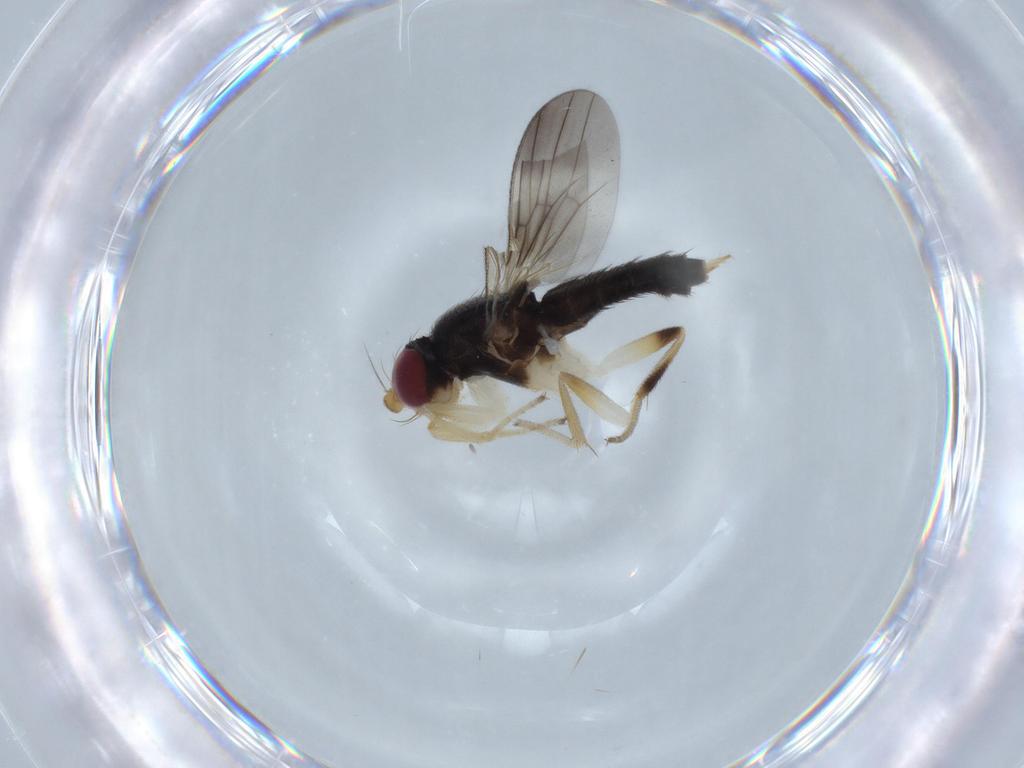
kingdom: Animalia
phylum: Arthropoda
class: Insecta
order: Diptera
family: Clusiidae
